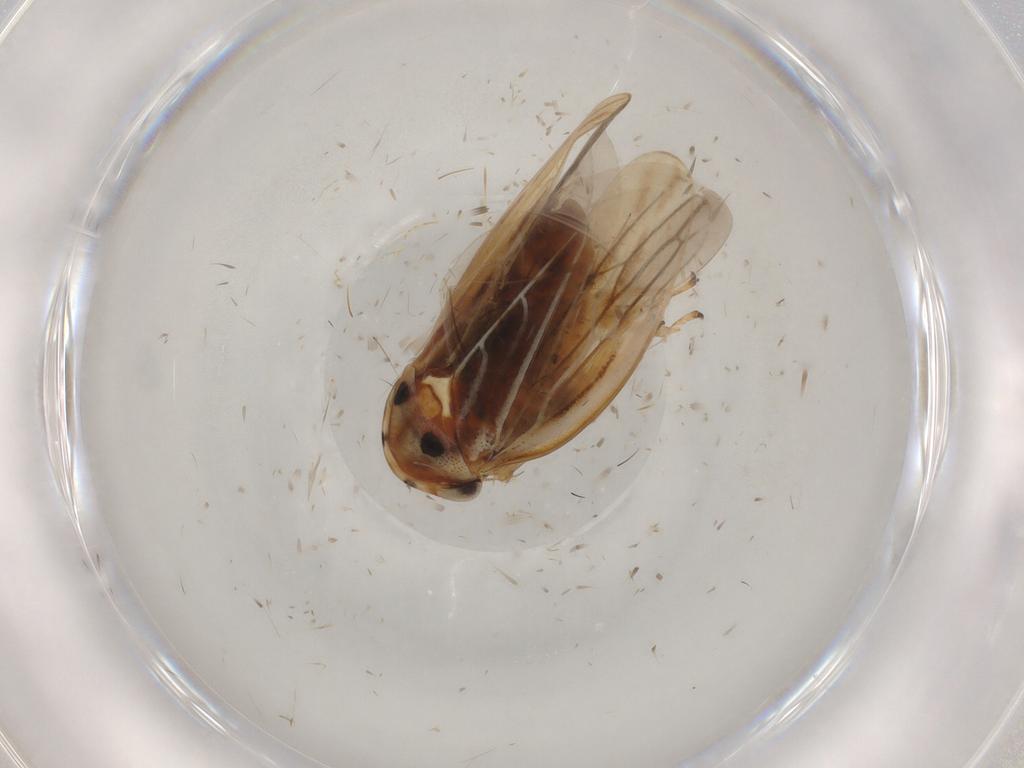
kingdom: Animalia
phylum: Arthropoda
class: Insecta
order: Hemiptera
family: Cicadellidae
